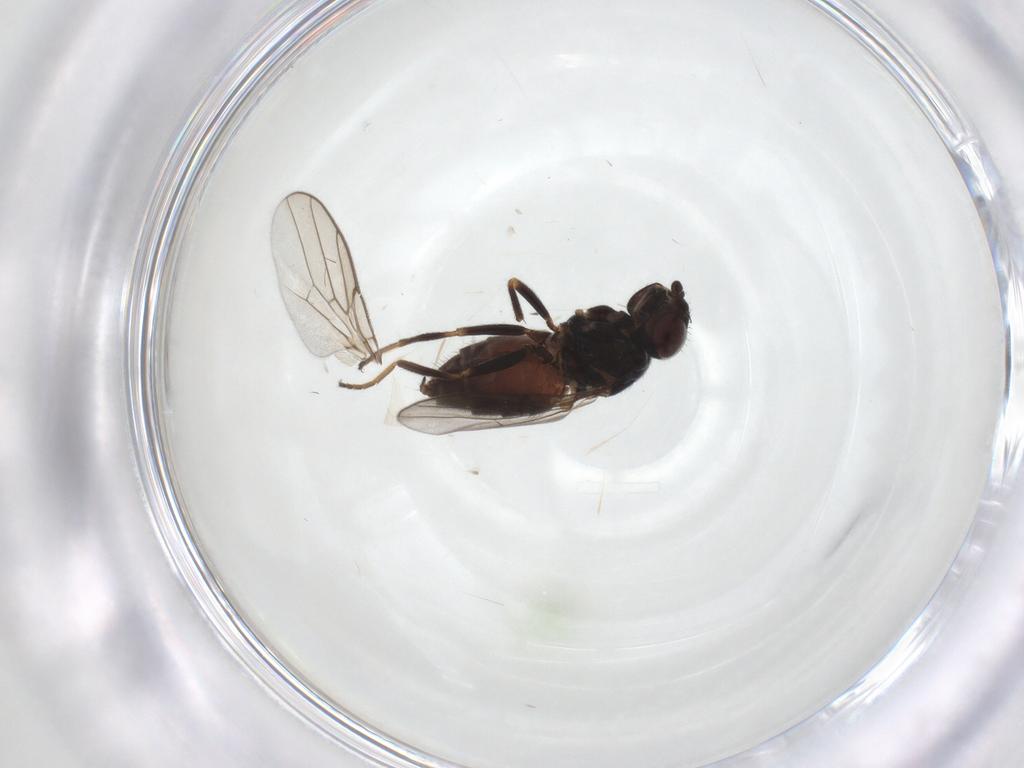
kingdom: Animalia
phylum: Arthropoda
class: Insecta
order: Diptera
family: Chloropidae
